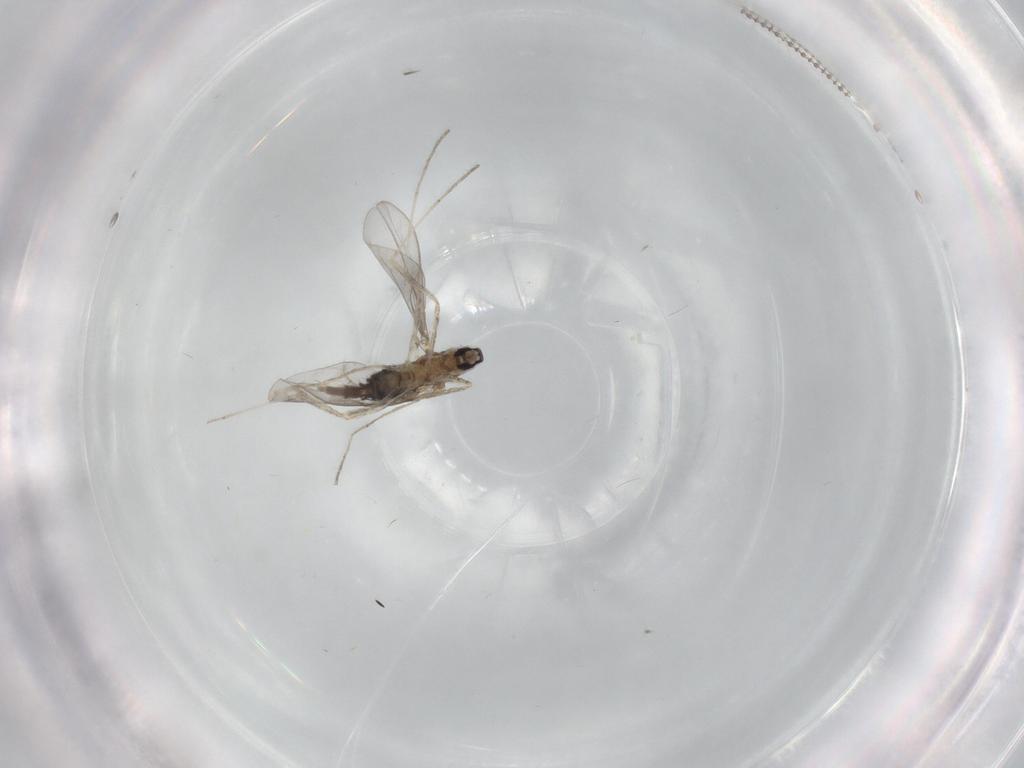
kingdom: Animalia
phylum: Arthropoda
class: Insecta
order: Diptera
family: Cecidomyiidae
